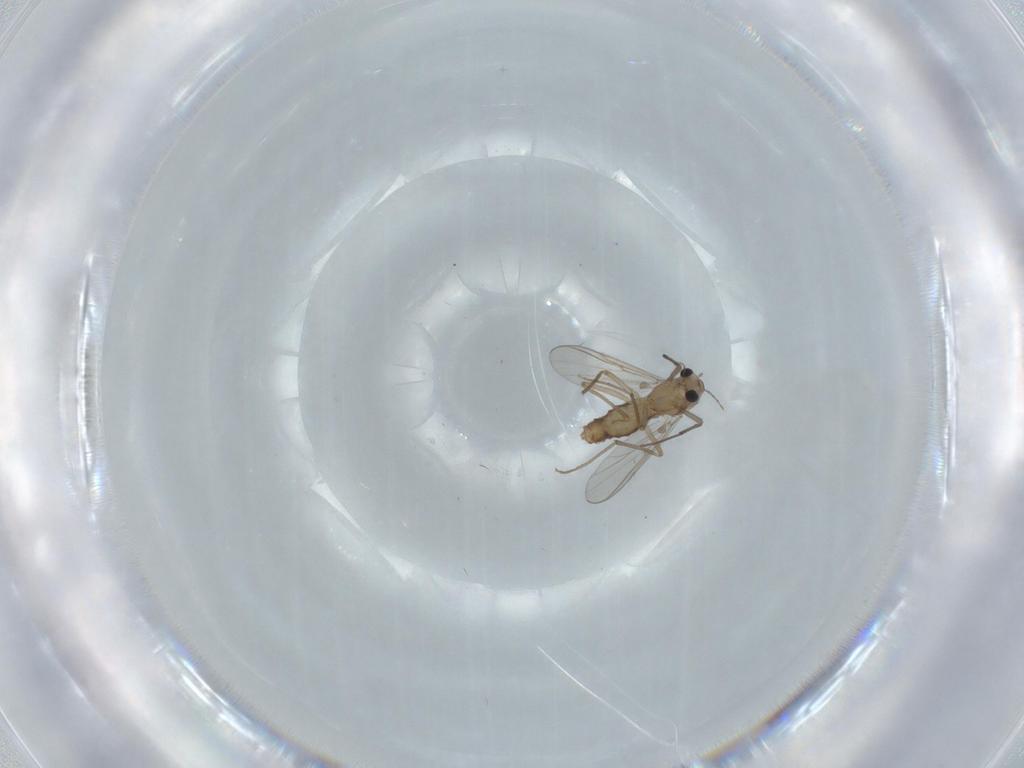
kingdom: Animalia
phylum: Arthropoda
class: Insecta
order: Diptera
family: Chironomidae
